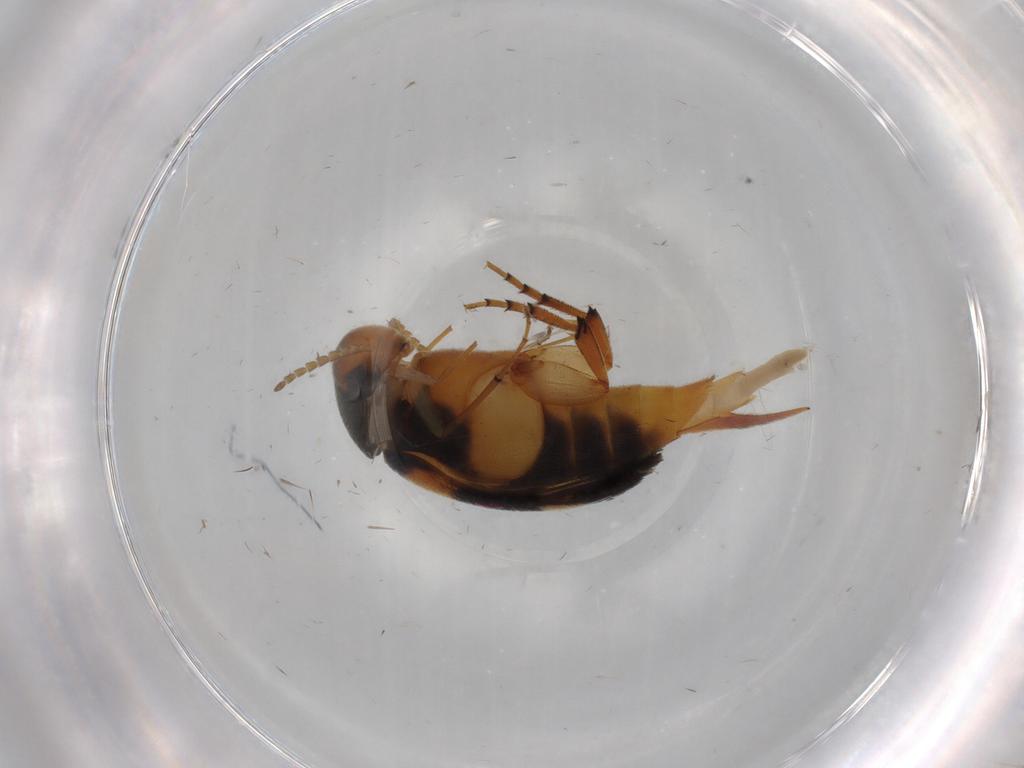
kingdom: Animalia
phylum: Arthropoda
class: Insecta
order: Coleoptera
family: Mordellidae
